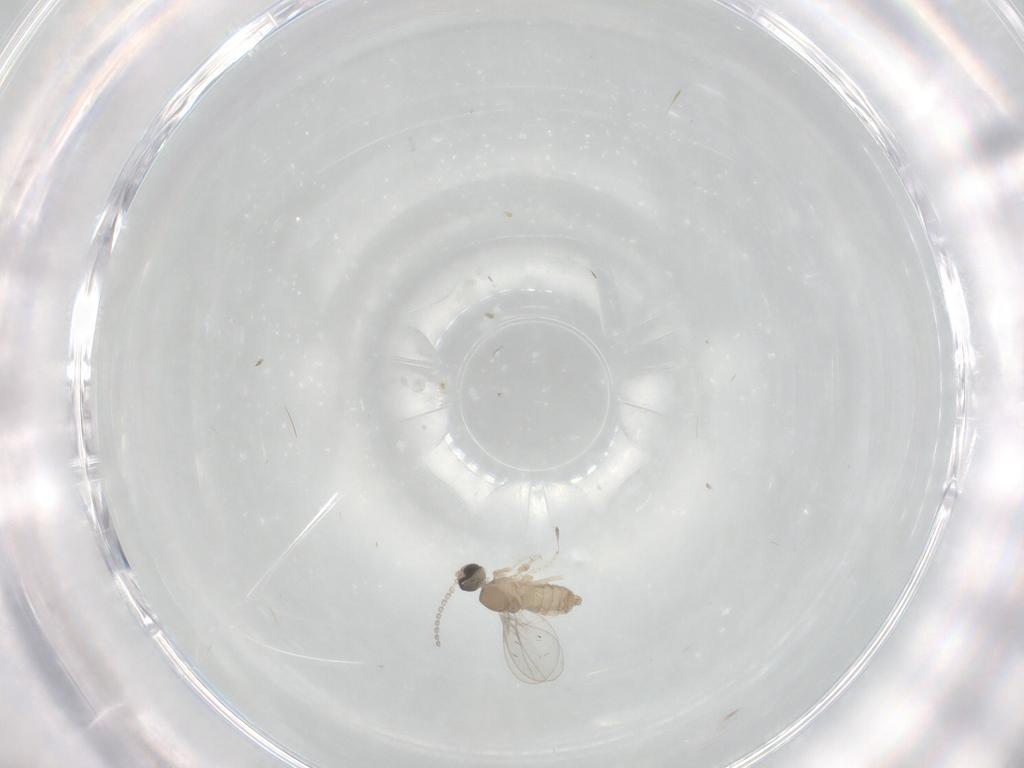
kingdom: Animalia
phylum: Arthropoda
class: Insecta
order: Diptera
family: Cecidomyiidae
